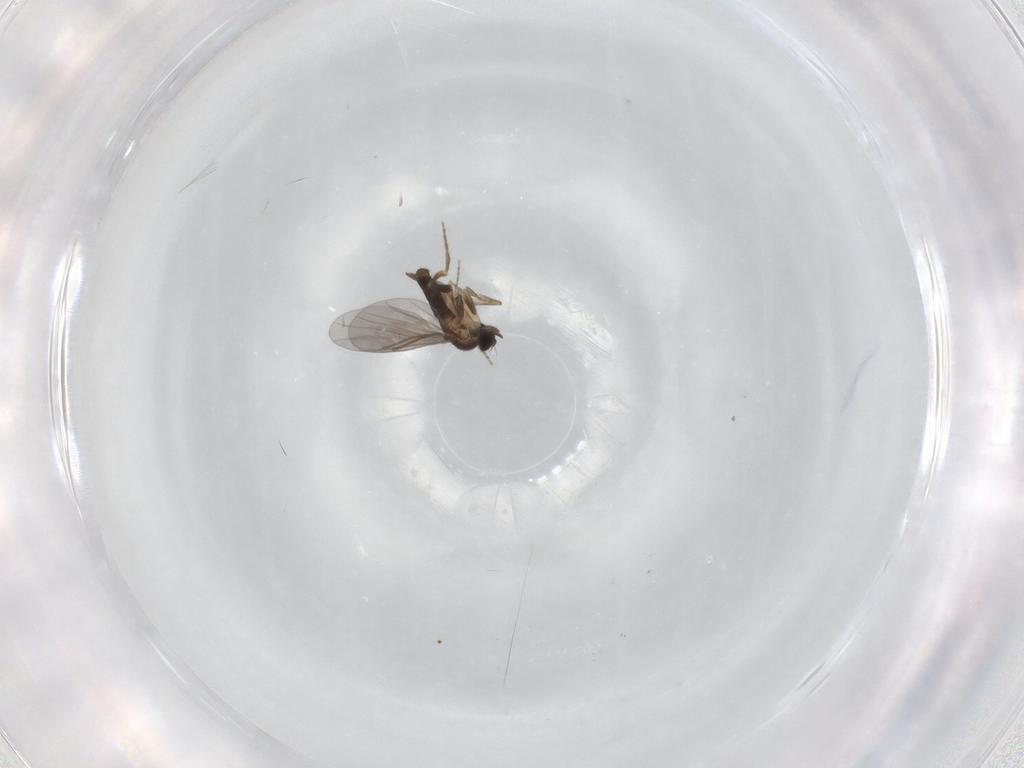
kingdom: Animalia
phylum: Arthropoda
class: Insecta
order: Diptera
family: Cecidomyiidae
